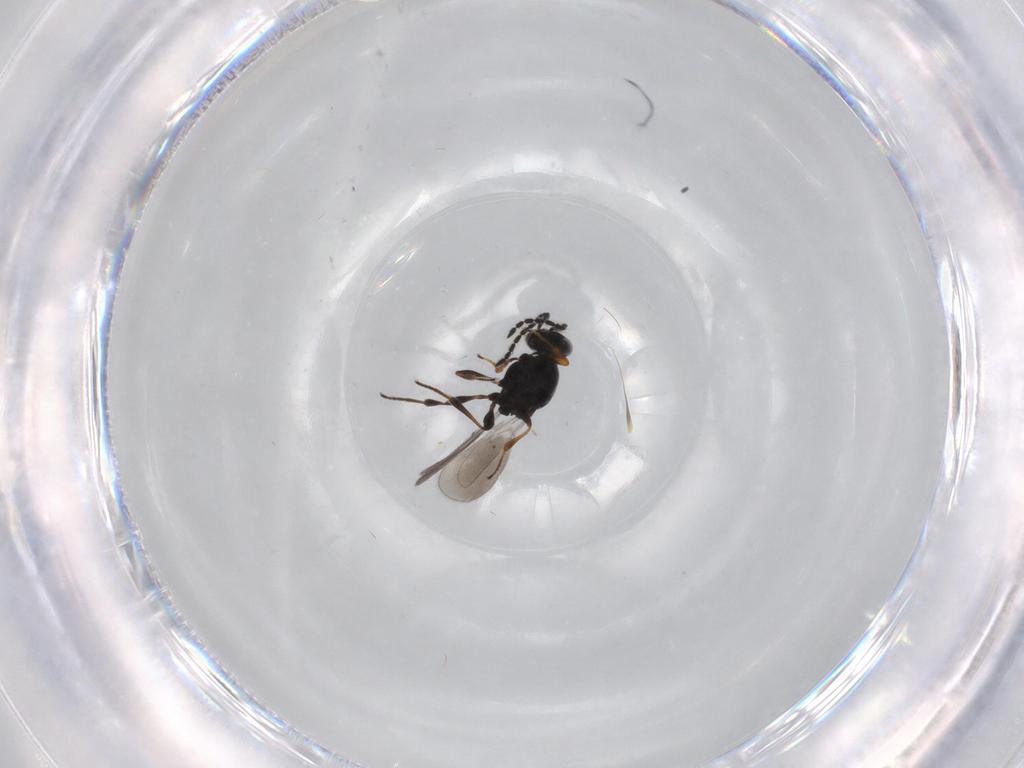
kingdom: Animalia
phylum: Arthropoda
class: Insecta
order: Hymenoptera
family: Platygastridae
